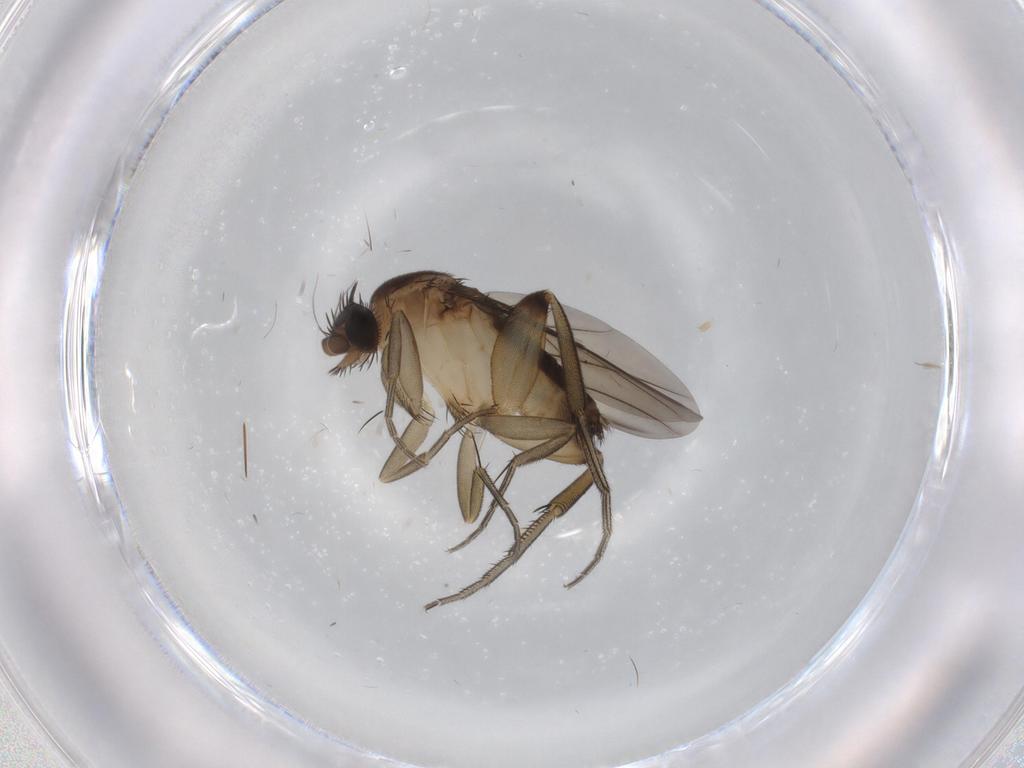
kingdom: Animalia
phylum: Arthropoda
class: Insecta
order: Diptera
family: Phoridae
